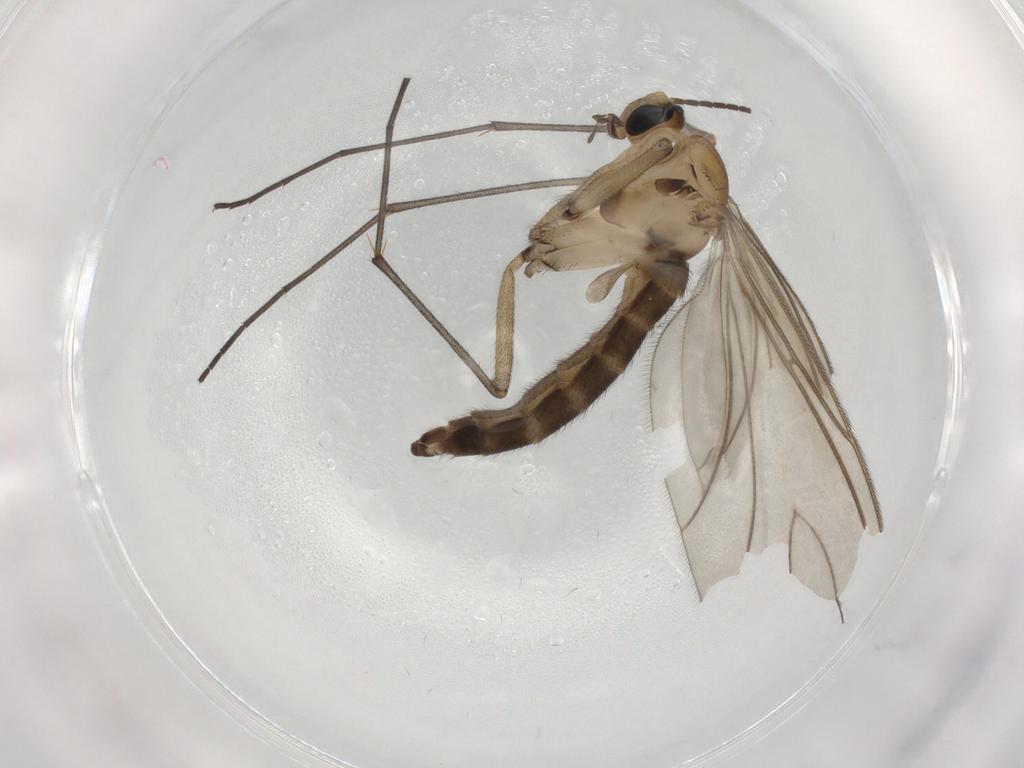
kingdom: Animalia
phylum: Arthropoda
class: Insecta
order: Diptera
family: Sciaridae
